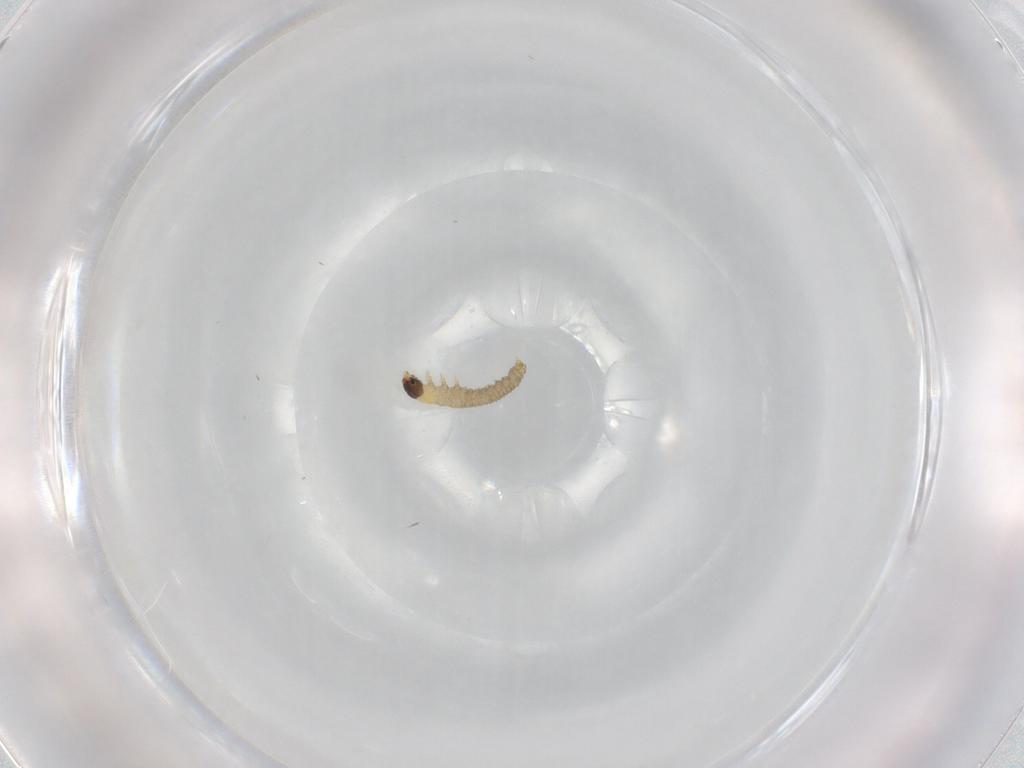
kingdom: Animalia
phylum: Arthropoda
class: Insecta
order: Lepidoptera
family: Tortricidae
